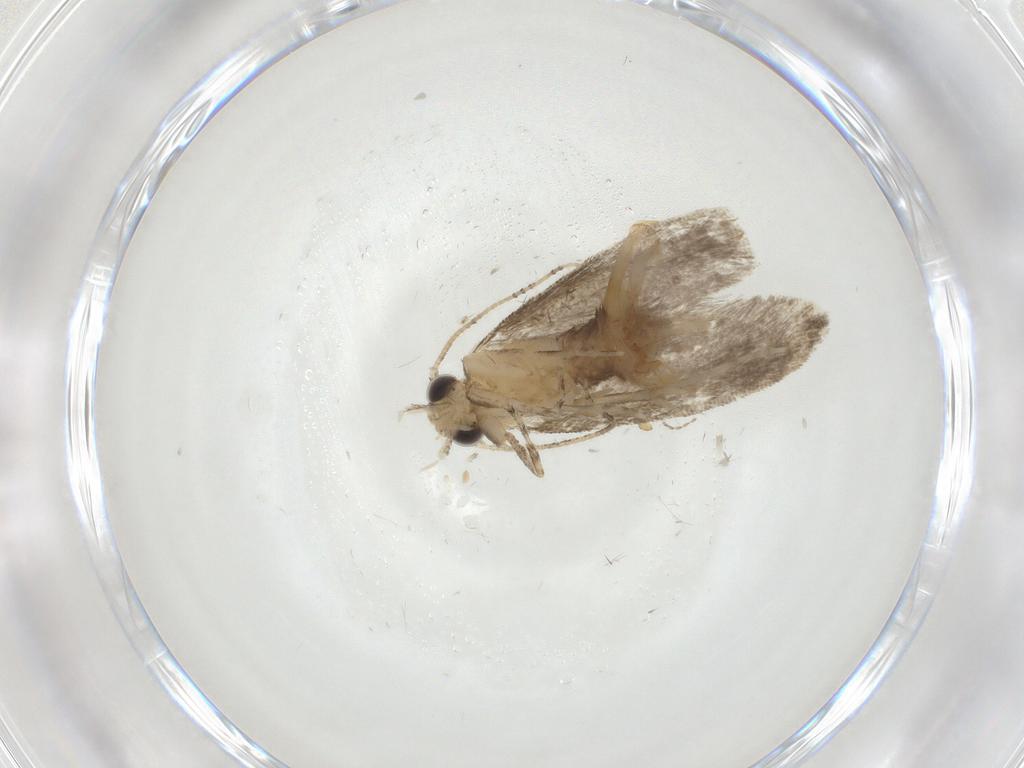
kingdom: Animalia
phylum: Arthropoda
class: Insecta
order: Lepidoptera
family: Tineidae
